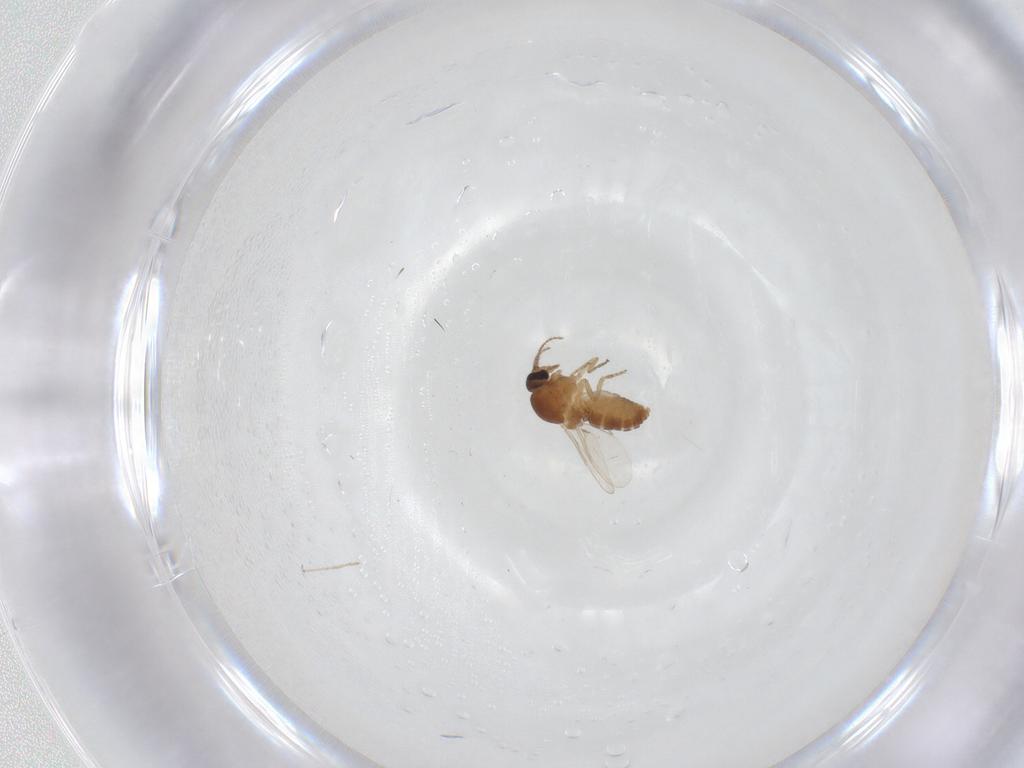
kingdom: Animalia
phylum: Arthropoda
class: Insecta
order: Diptera
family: Ceratopogonidae
